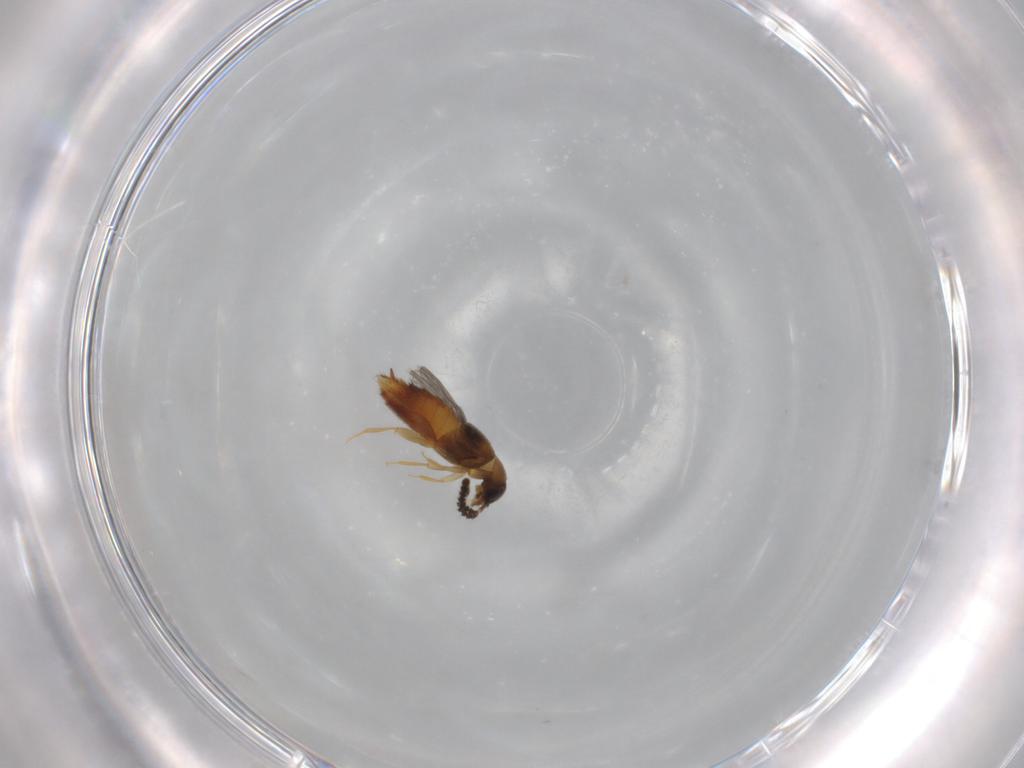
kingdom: Animalia
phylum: Arthropoda
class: Insecta
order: Coleoptera
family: Staphylinidae
